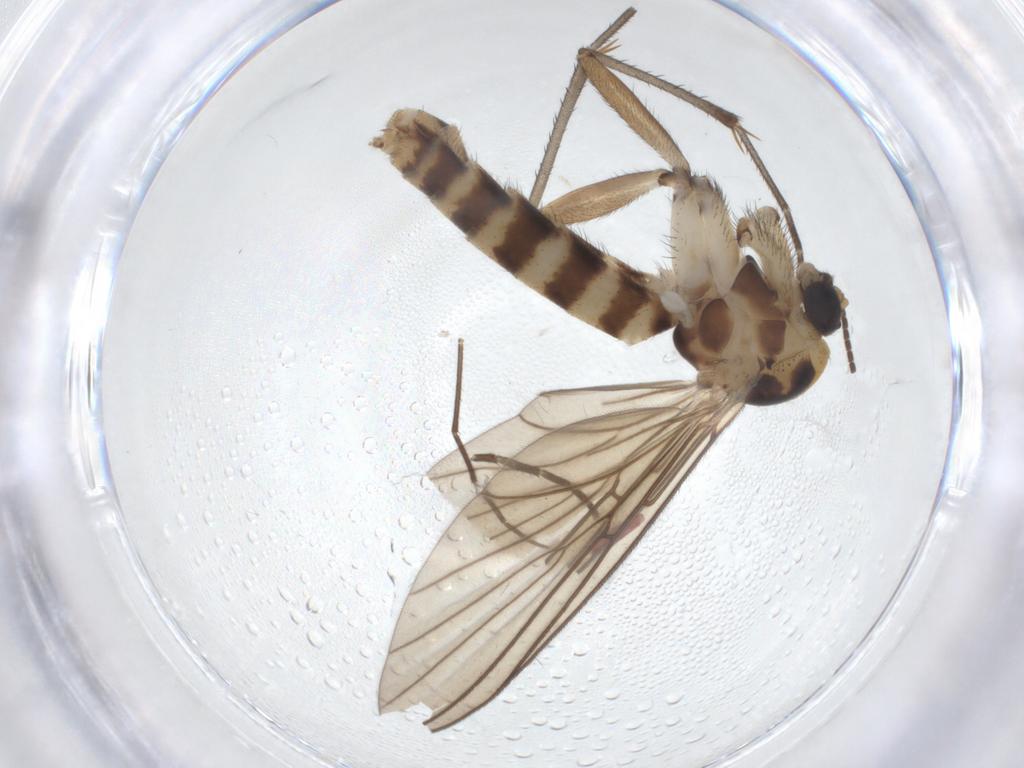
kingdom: Animalia
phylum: Arthropoda
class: Insecta
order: Diptera
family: Mycetophilidae
